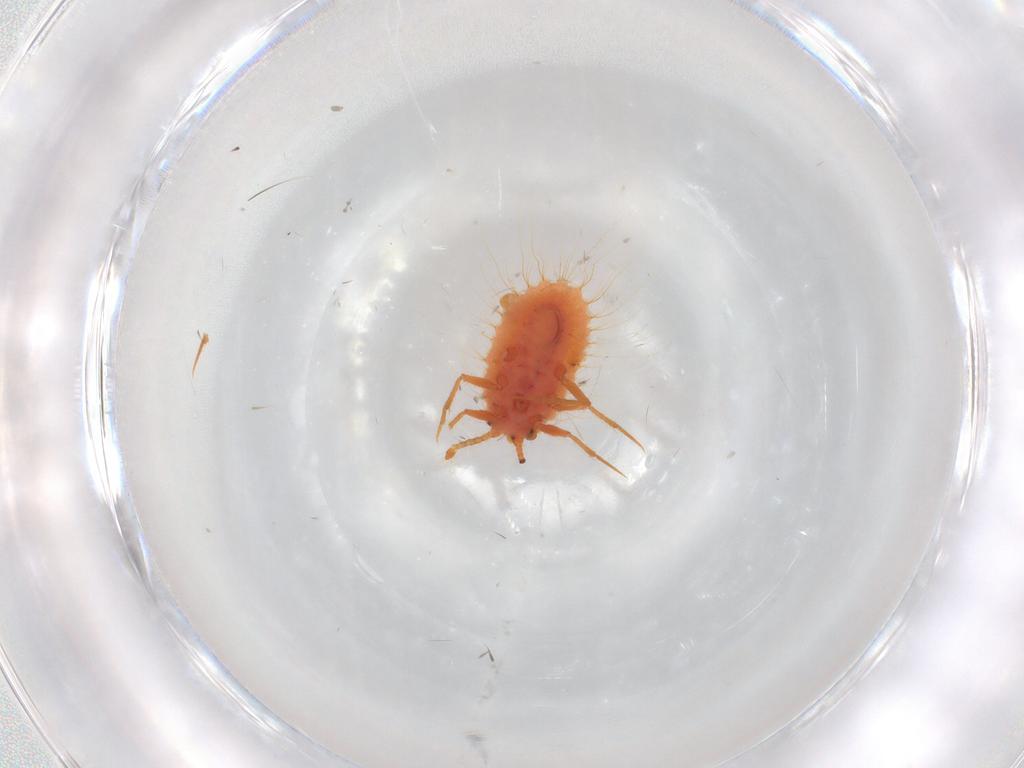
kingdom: Animalia
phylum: Arthropoda
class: Insecta
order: Hemiptera
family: Coccoidea_incertae_sedis
